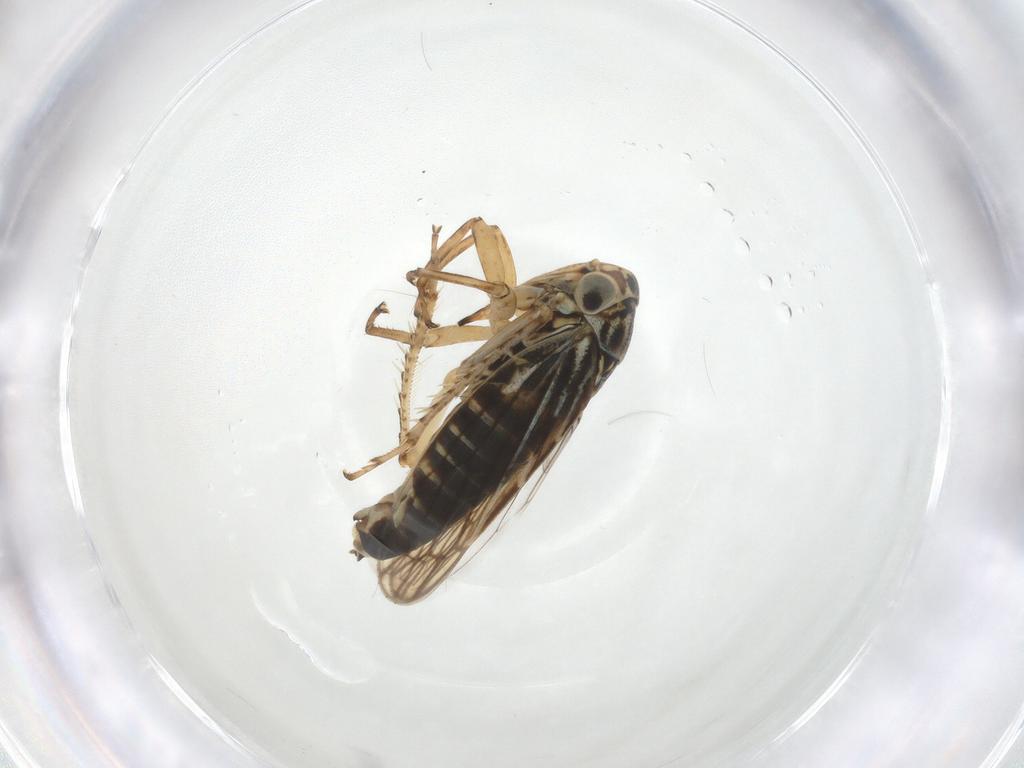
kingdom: Animalia
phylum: Arthropoda
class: Insecta
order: Hemiptera
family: Cicadellidae
